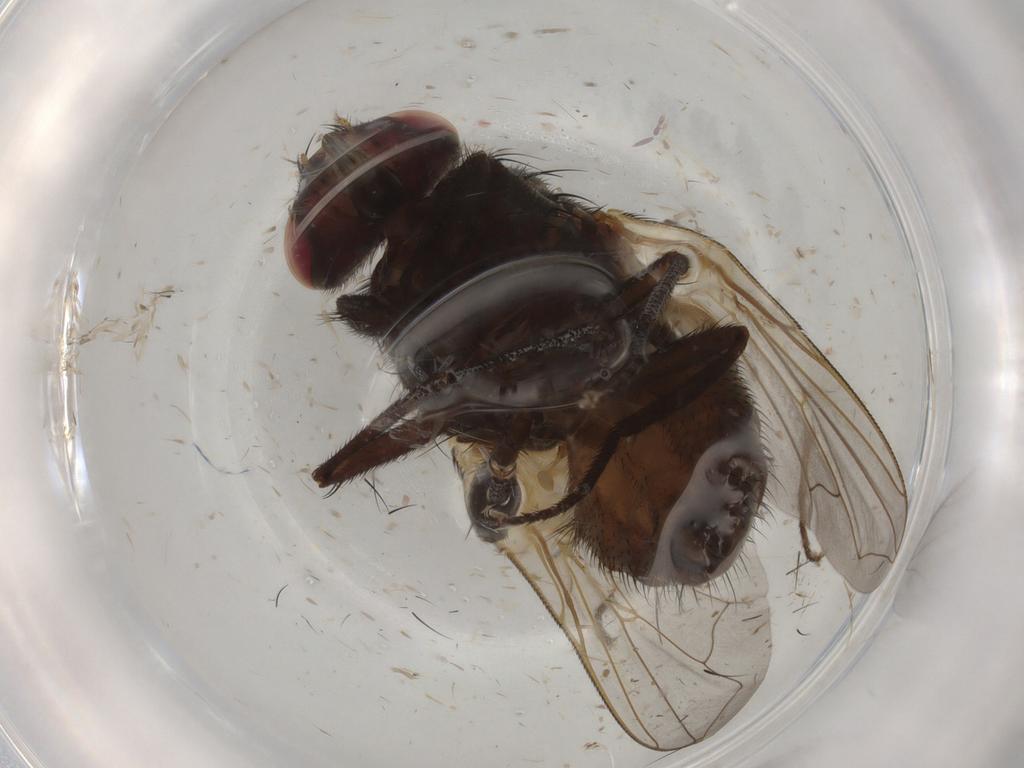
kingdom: Animalia
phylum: Arthropoda
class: Insecta
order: Diptera
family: Muscidae
